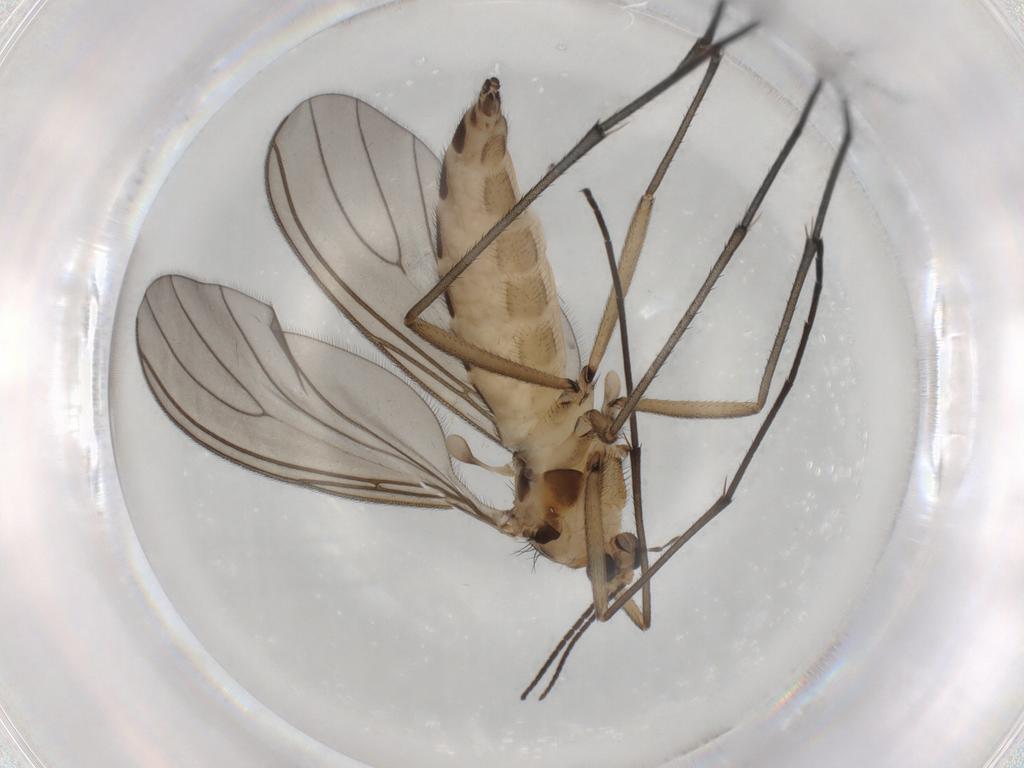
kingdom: Animalia
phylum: Arthropoda
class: Insecta
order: Diptera
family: Sciaridae
